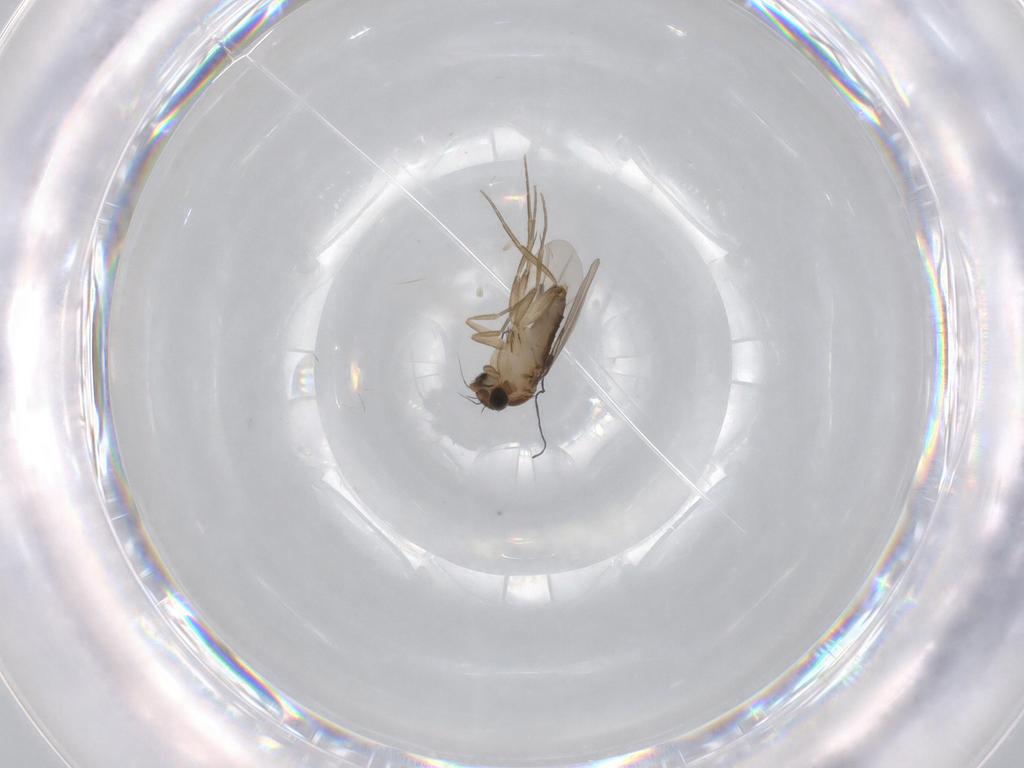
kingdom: Animalia
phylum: Arthropoda
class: Insecta
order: Diptera
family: Phoridae
